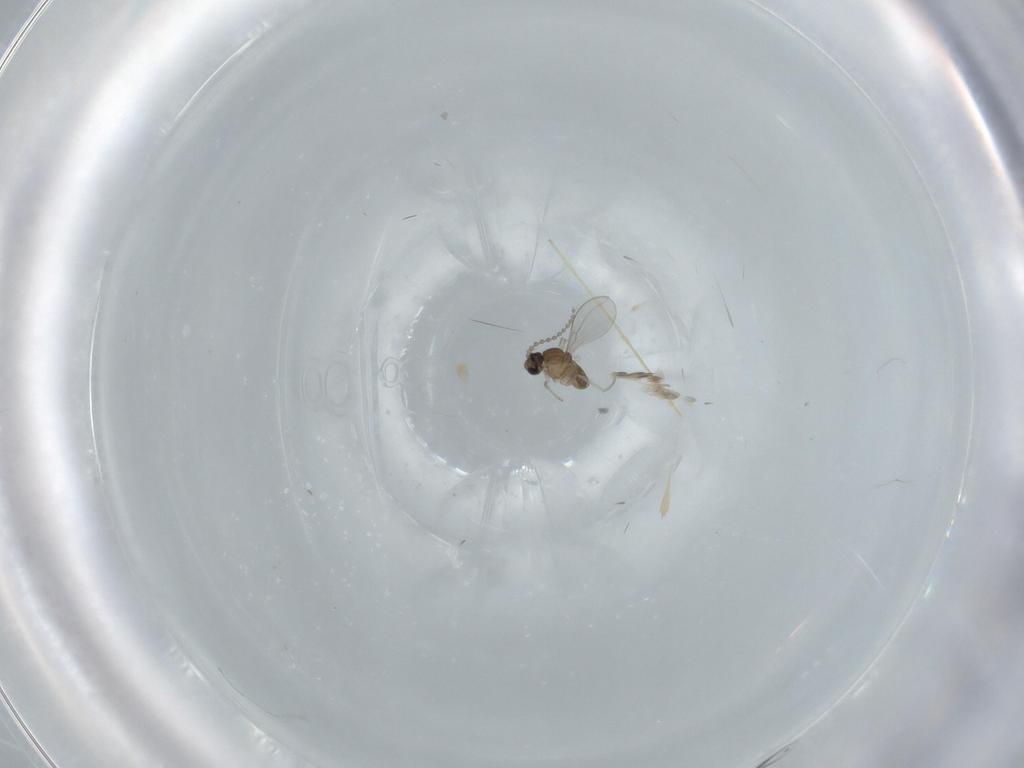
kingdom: Animalia
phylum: Arthropoda
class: Insecta
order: Diptera
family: Cecidomyiidae
